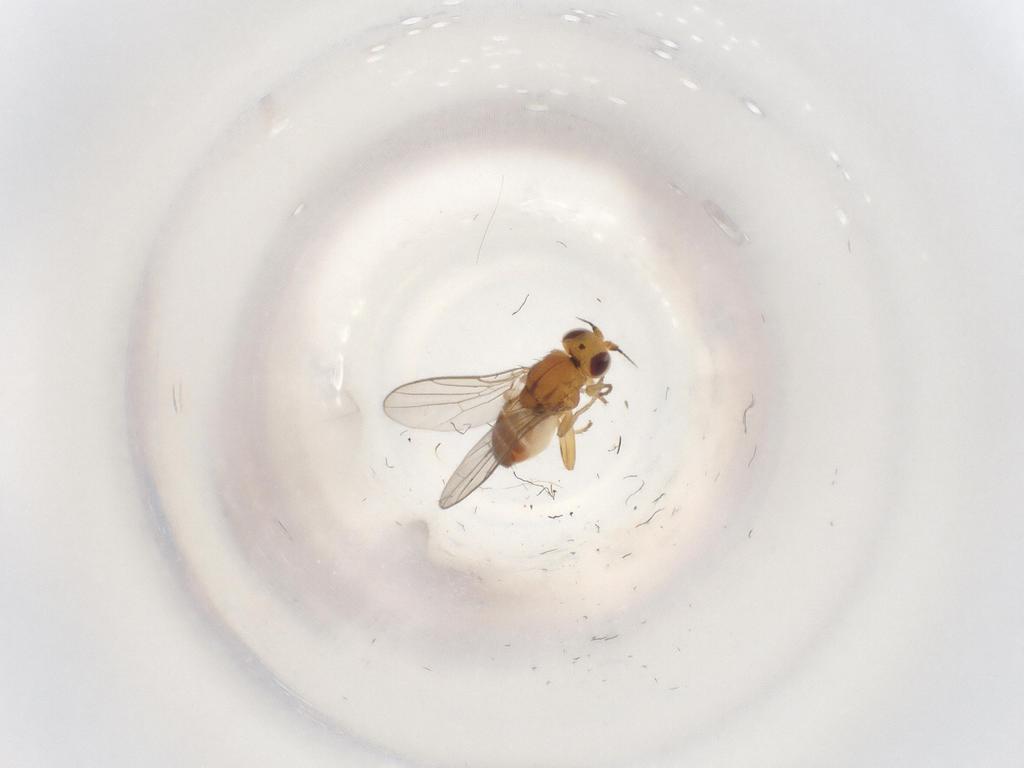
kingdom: Animalia
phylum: Arthropoda
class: Insecta
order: Diptera
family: Chloropidae
